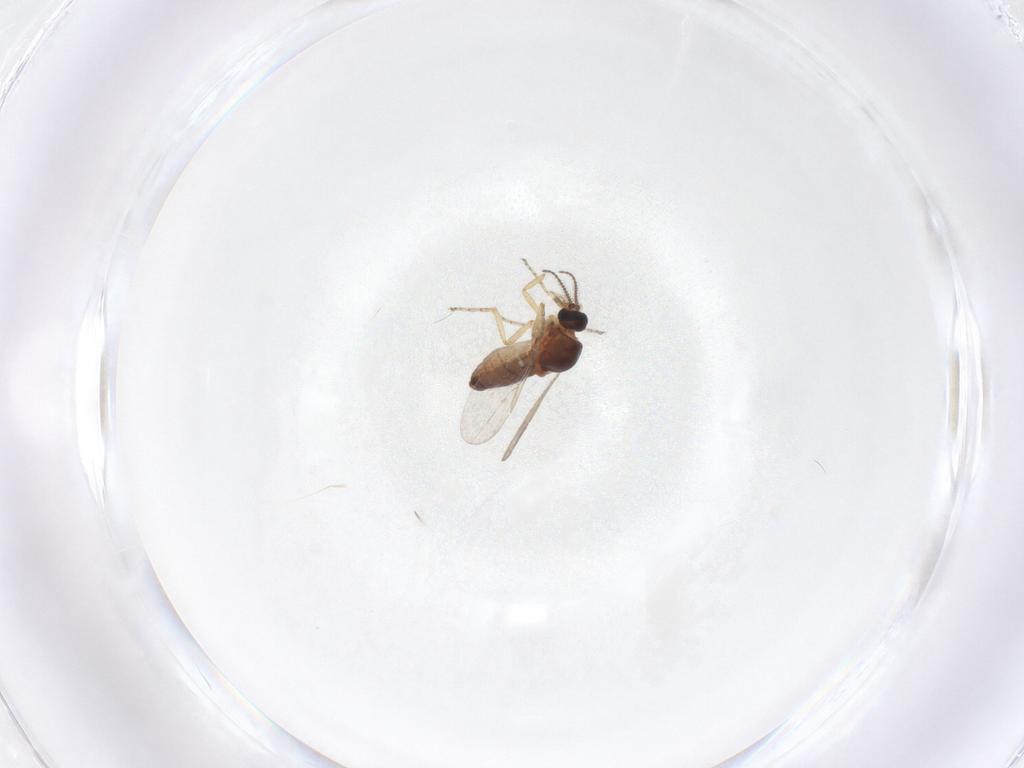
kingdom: Animalia
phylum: Arthropoda
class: Insecta
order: Diptera
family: Ceratopogonidae
